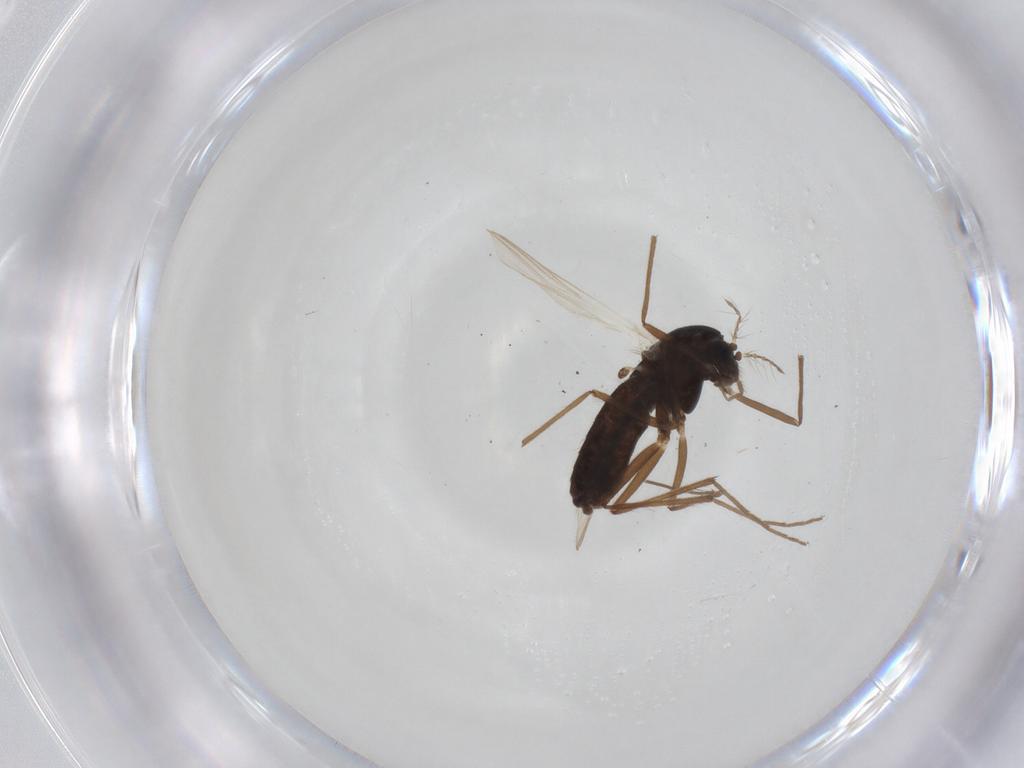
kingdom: Animalia
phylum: Arthropoda
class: Insecta
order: Diptera
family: Chironomidae
